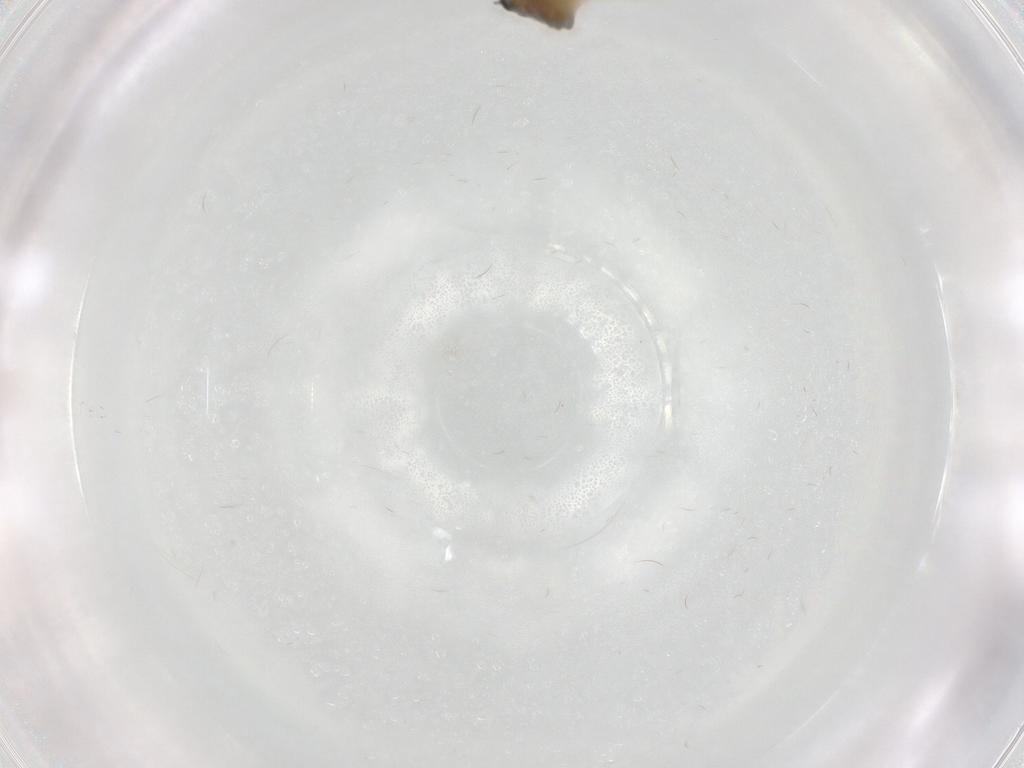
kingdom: Animalia
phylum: Arthropoda
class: Insecta
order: Diptera
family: Chironomidae
